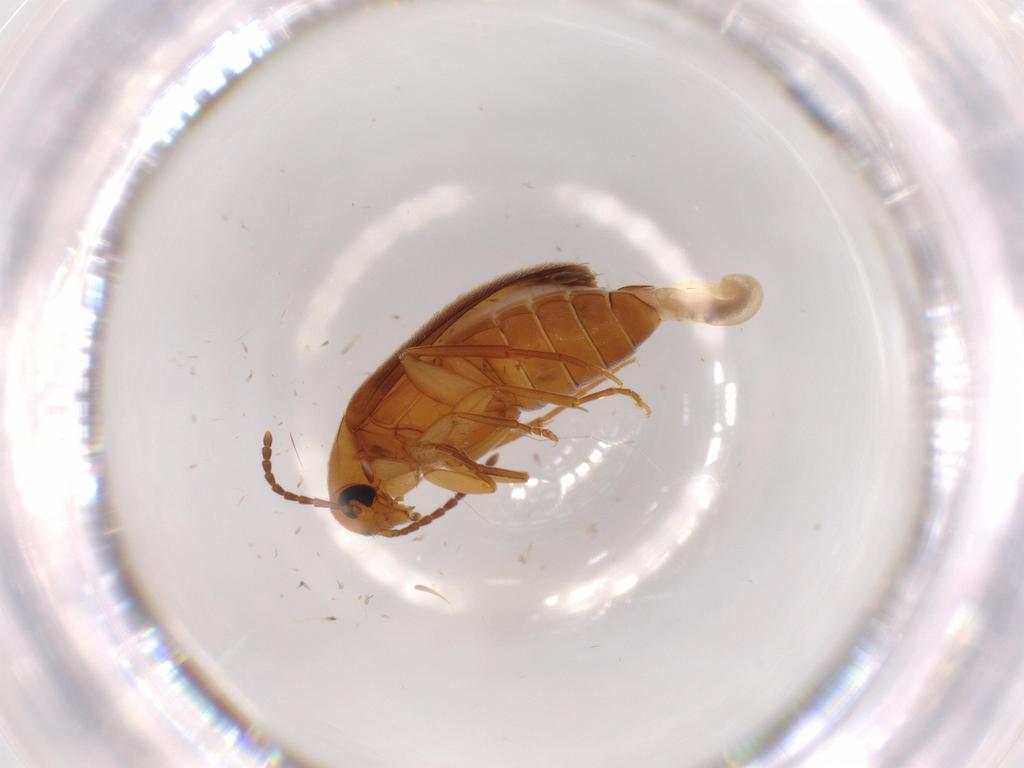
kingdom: Animalia
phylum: Arthropoda
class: Insecta
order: Coleoptera
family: Scraptiidae
